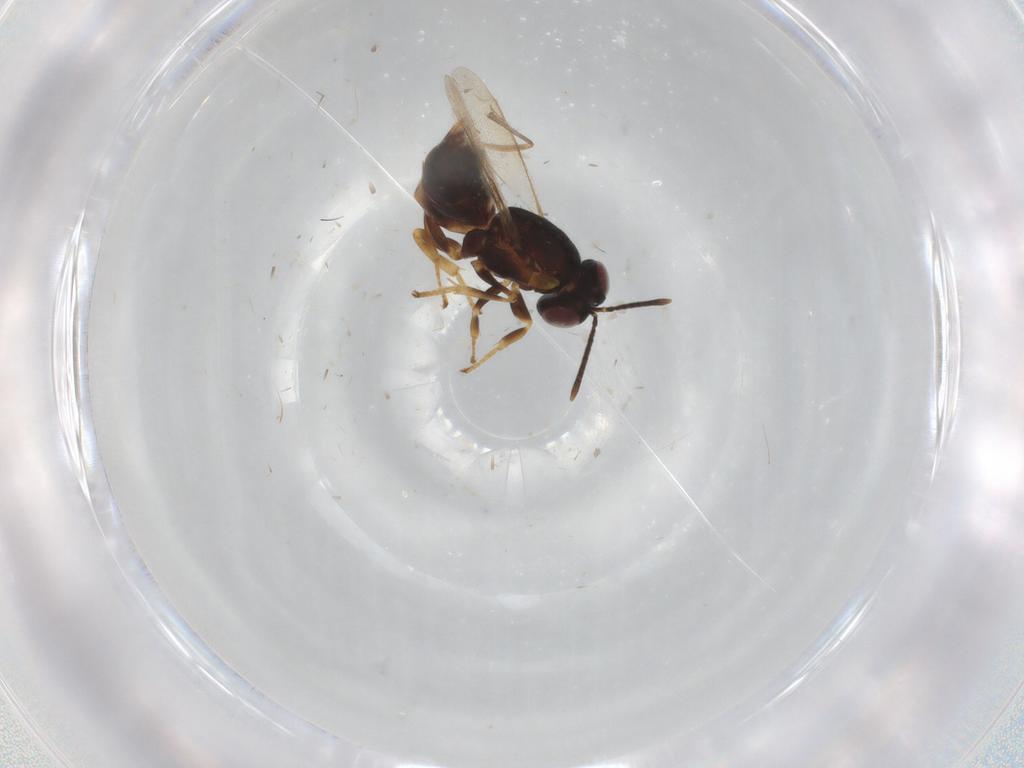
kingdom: Animalia
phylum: Arthropoda
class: Insecta
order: Hymenoptera
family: Tanaostigmatidae
